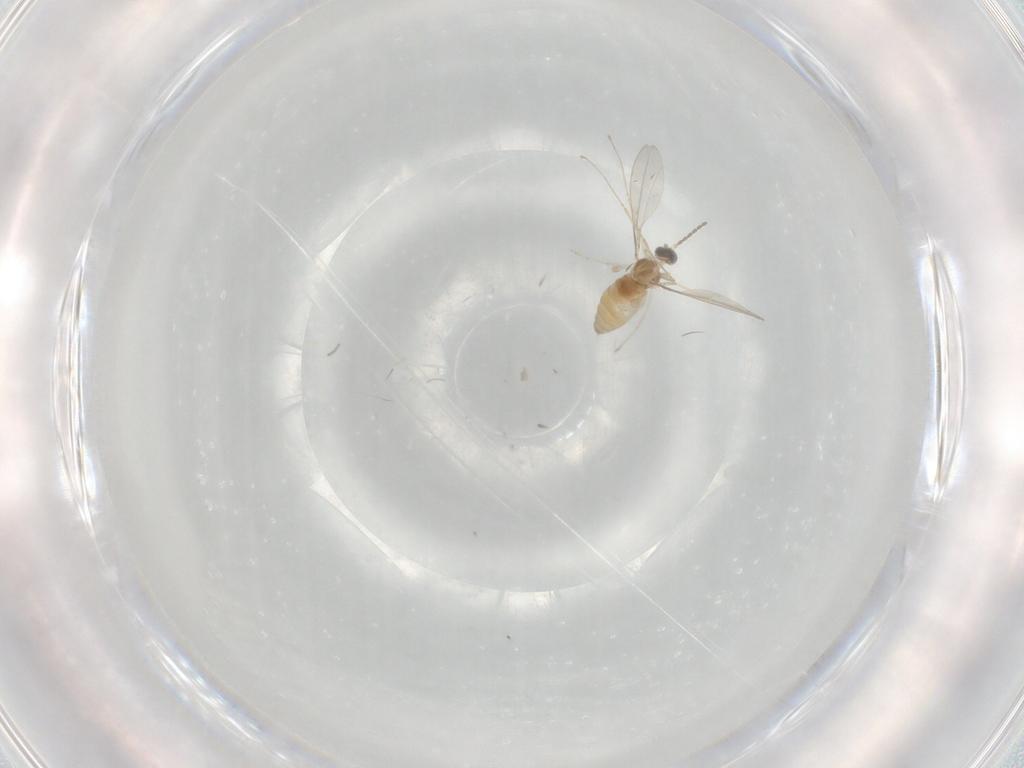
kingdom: Animalia
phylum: Arthropoda
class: Insecta
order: Diptera
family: Cecidomyiidae
